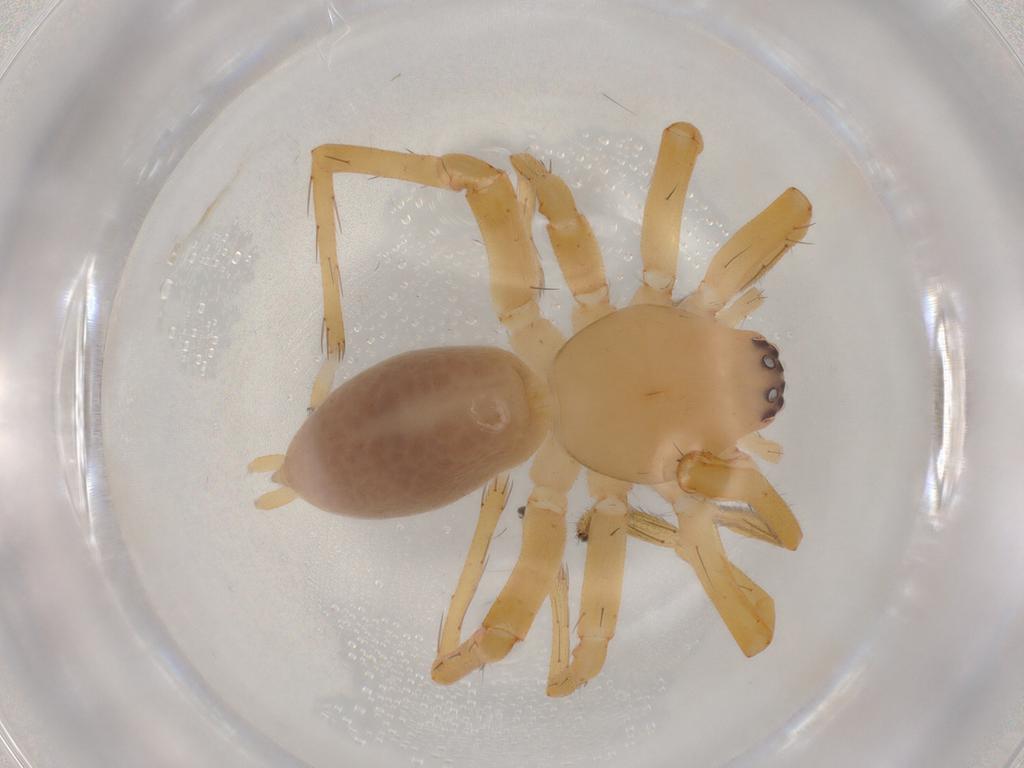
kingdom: Animalia
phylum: Arthropoda
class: Arachnida
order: Araneae
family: Clubionidae
